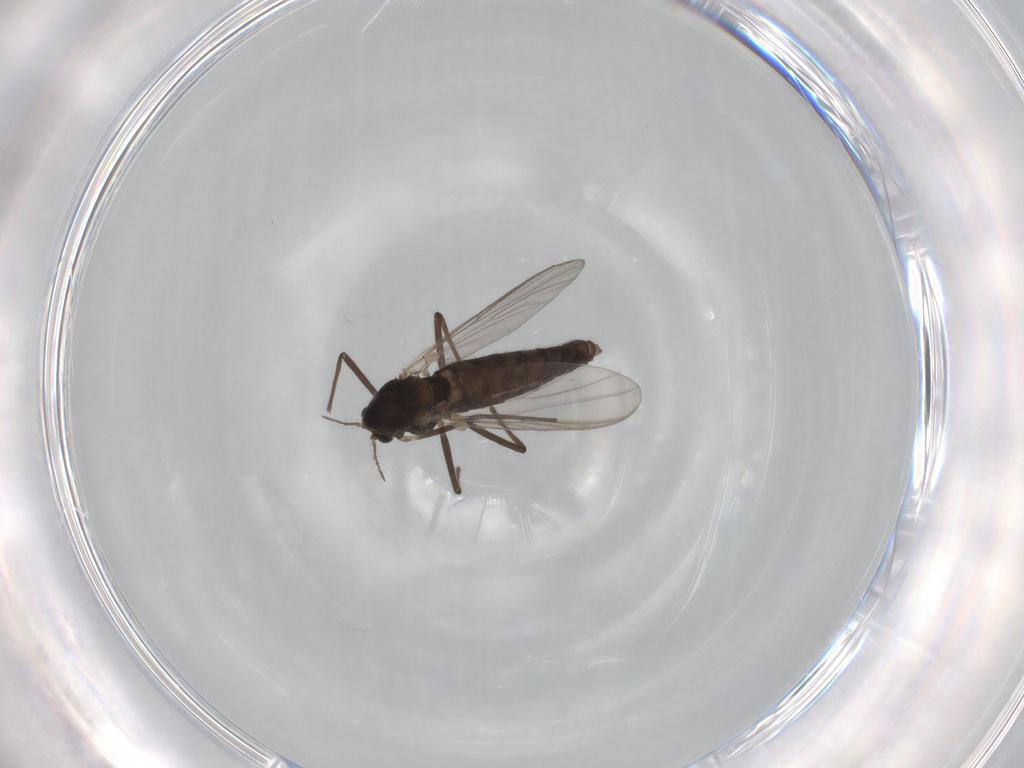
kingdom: Animalia
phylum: Arthropoda
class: Insecta
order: Diptera
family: Chironomidae
